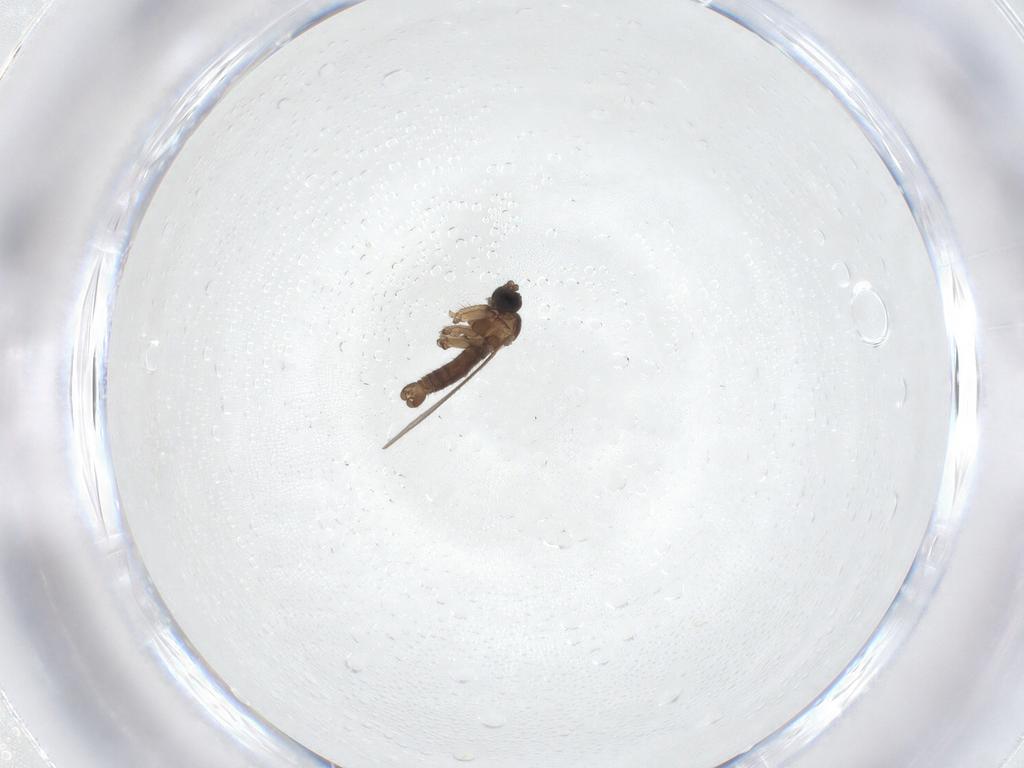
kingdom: Animalia
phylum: Arthropoda
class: Insecta
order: Diptera
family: Sciaridae
